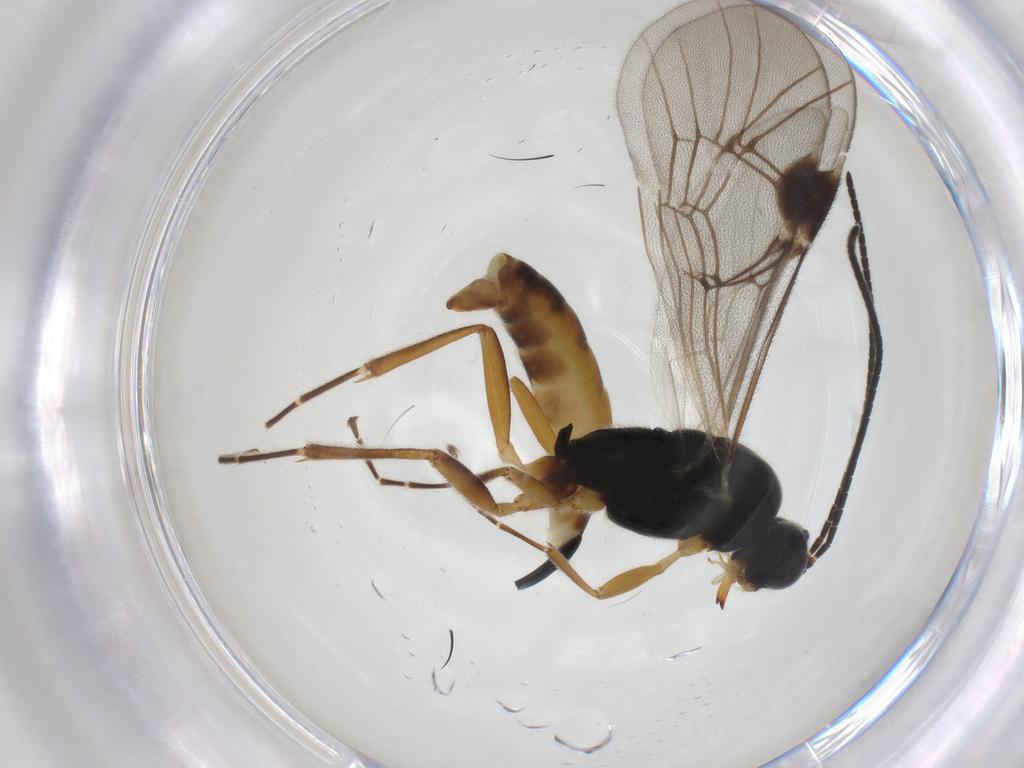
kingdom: Animalia
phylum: Arthropoda
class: Insecta
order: Hymenoptera
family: Ichneumonidae
